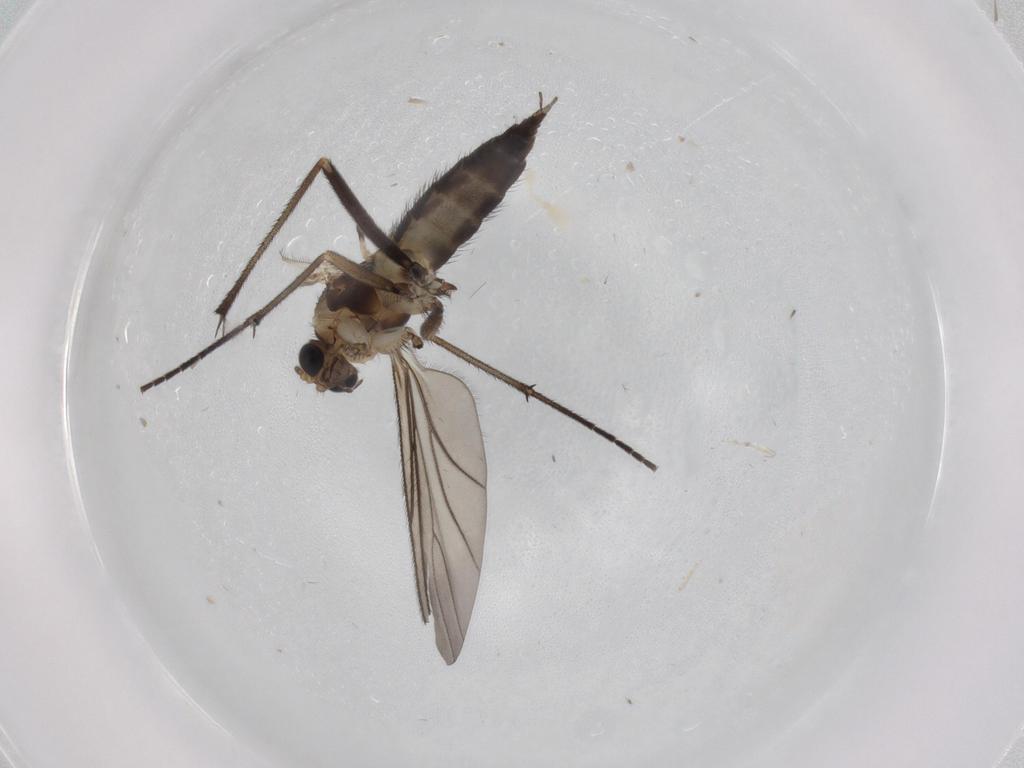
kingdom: Animalia
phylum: Arthropoda
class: Insecta
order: Diptera
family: Sciaridae
